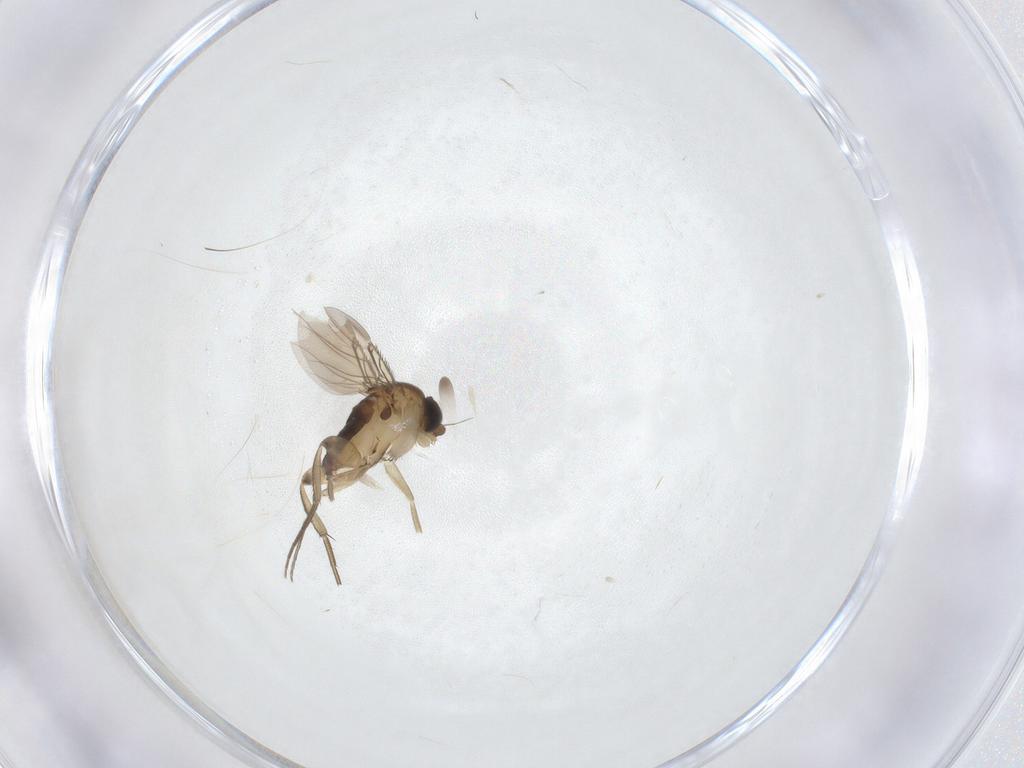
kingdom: Animalia
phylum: Arthropoda
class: Insecta
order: Diptera
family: Phoridae
